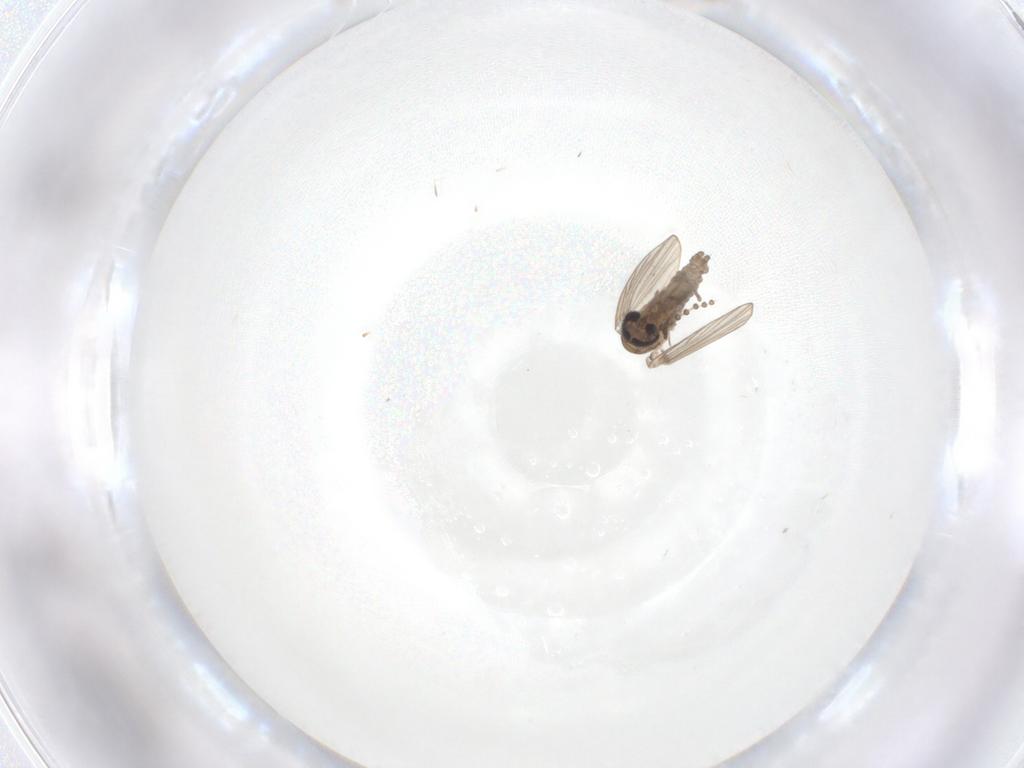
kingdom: Animalia
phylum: Arthropoda
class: Insecta
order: Diptera
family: Psychodidae
